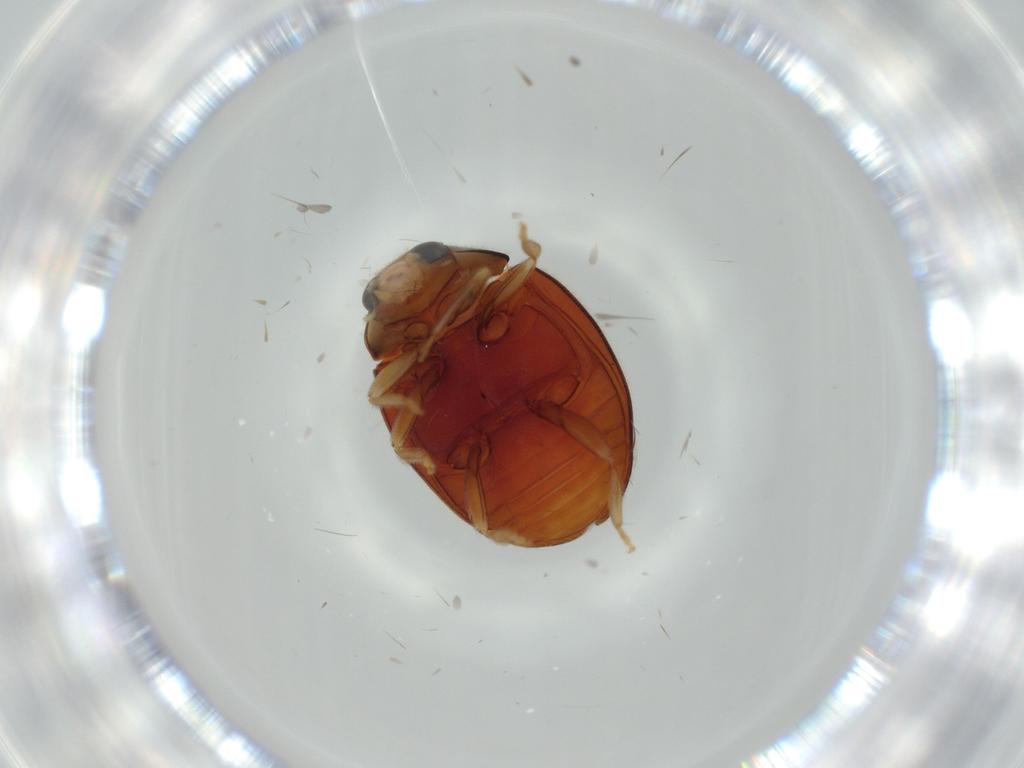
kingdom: Animalia
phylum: Arthropoda
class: Insecta
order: Coleoptera
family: Coccinellidae
